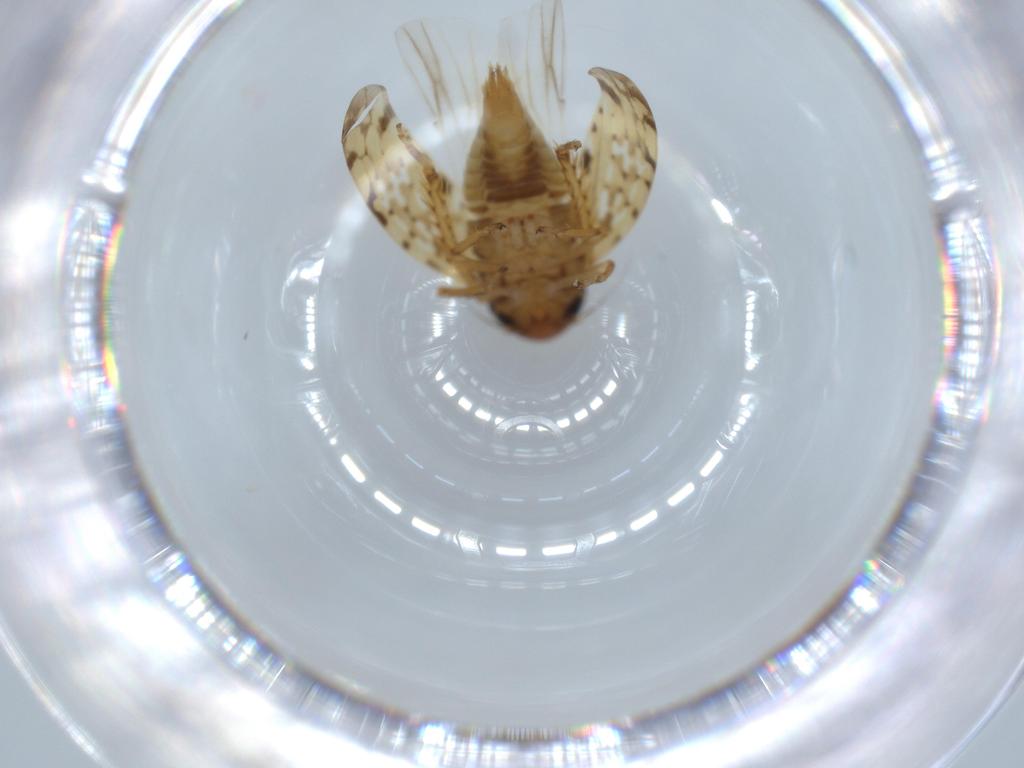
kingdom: Animalia
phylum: Arthropoda
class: Insecta
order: Hemiptera
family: Cicadellidae
